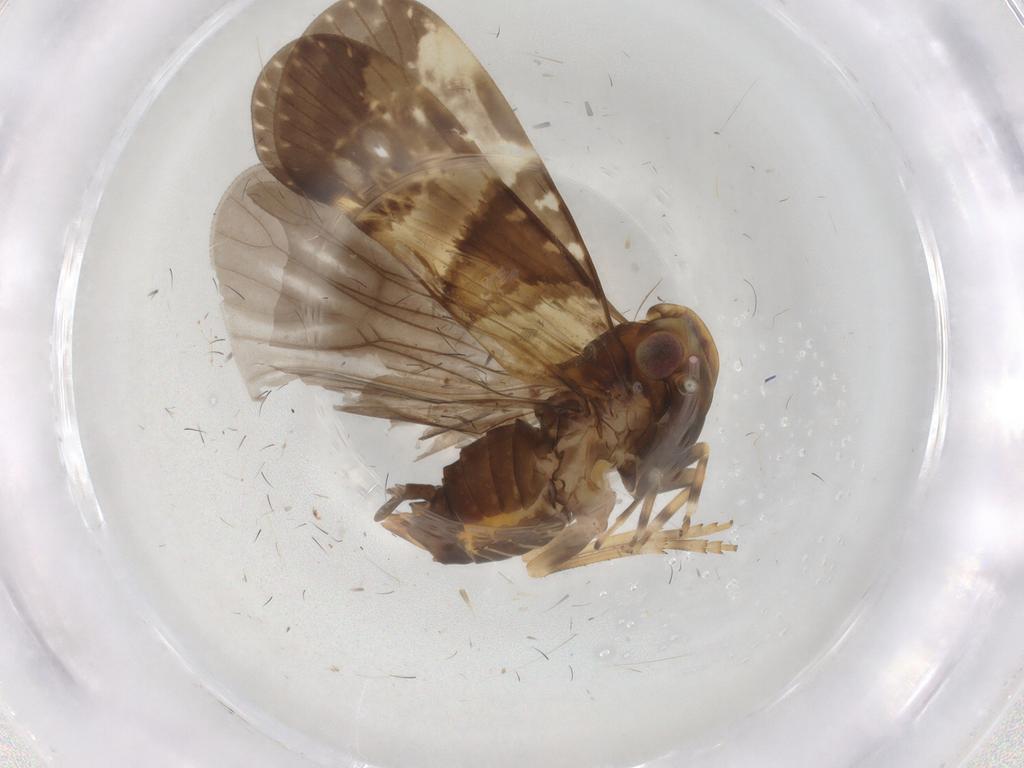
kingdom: Animalia
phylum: Arthropoda
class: Insecta
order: Hemiptera
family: Cixiidae
